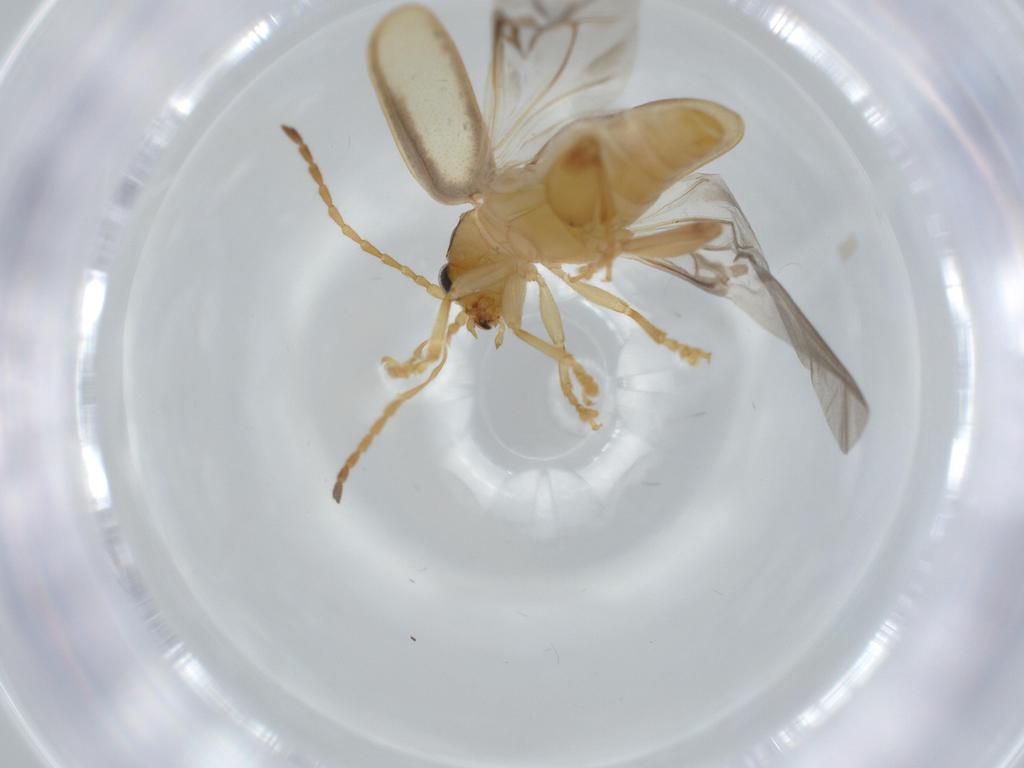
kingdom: Animalia
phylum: Arthropoda
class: Insecta
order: Coleoptera
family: Chrysomelidae
